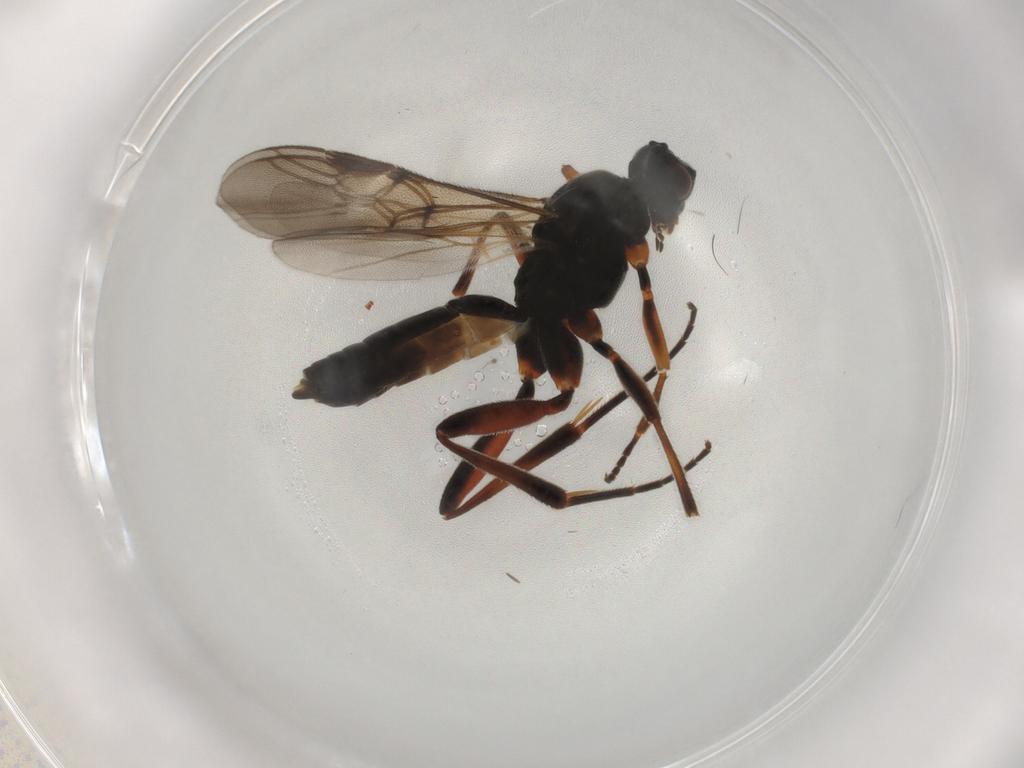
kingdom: Animalia
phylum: Arthropoda
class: Insecta
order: Hymenoptera
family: Braconidae
